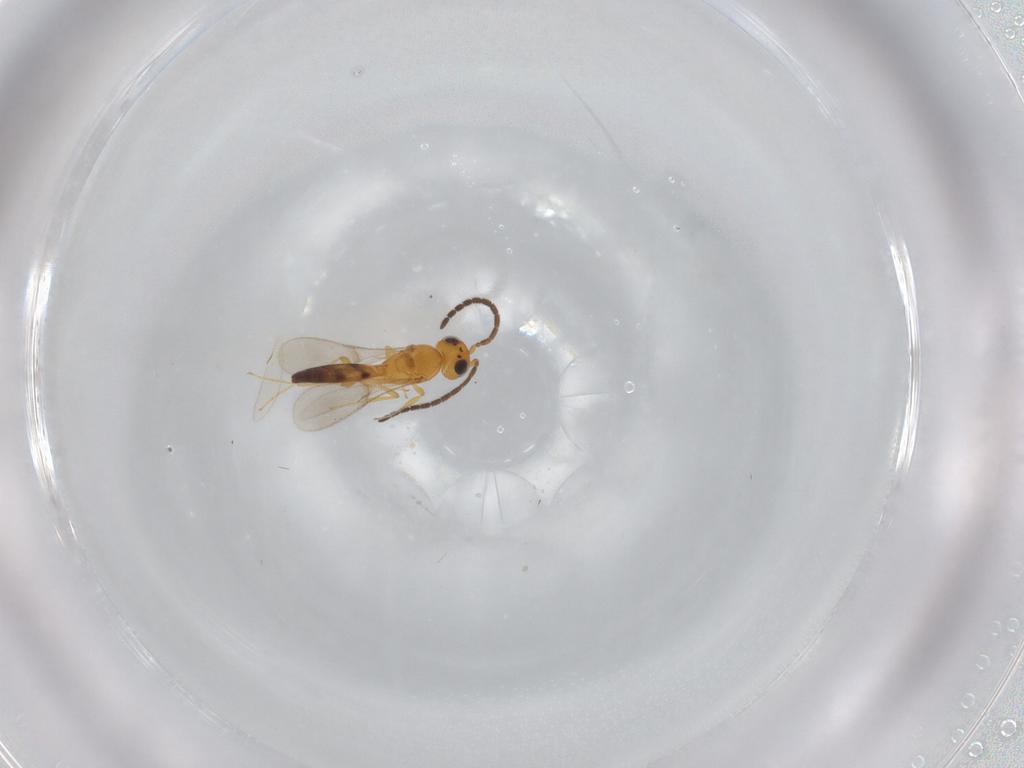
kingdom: Animalia
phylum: Arthropoda
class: Insecta
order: Hymenoptera
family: Scelionidae
